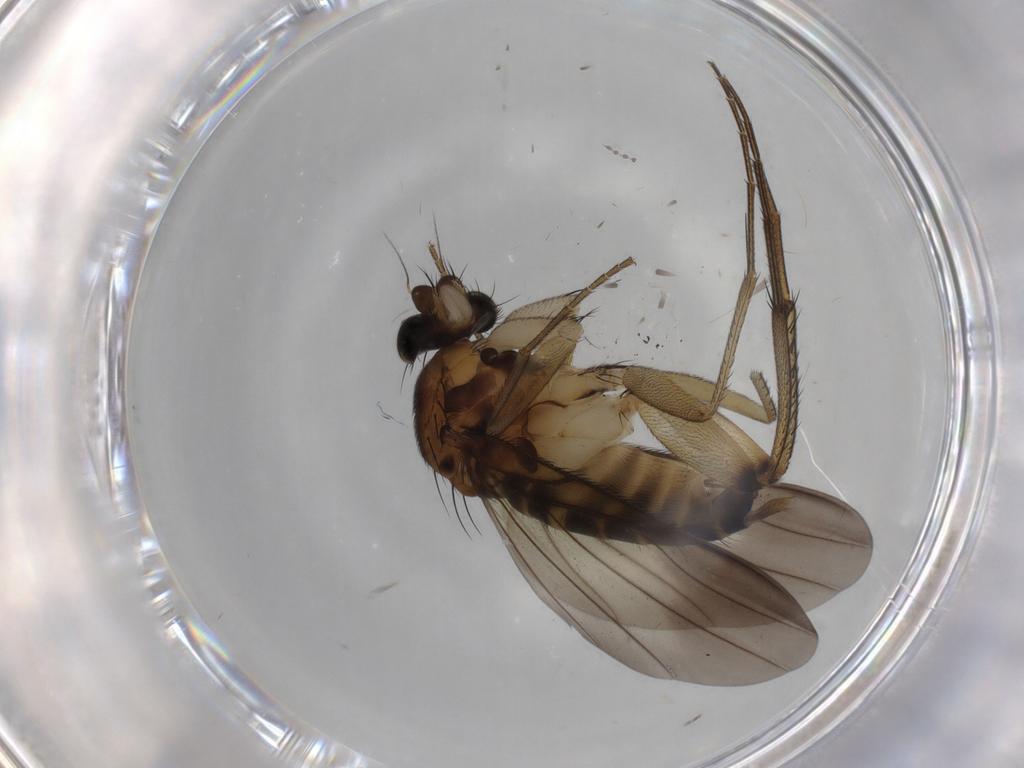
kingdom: Animalia
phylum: Arthropoda
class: Insecta
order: Diptera
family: Phoridae
